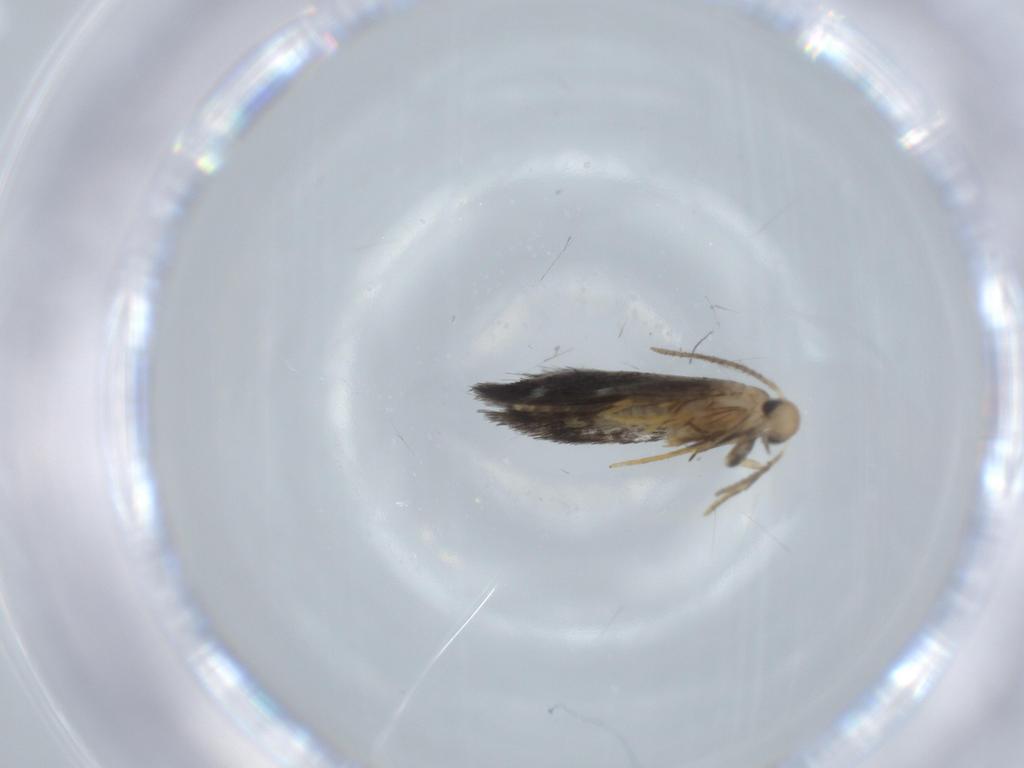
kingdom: Animalia
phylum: Arthropoda
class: Insecta
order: Lepidoptera
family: Heliozelidae
